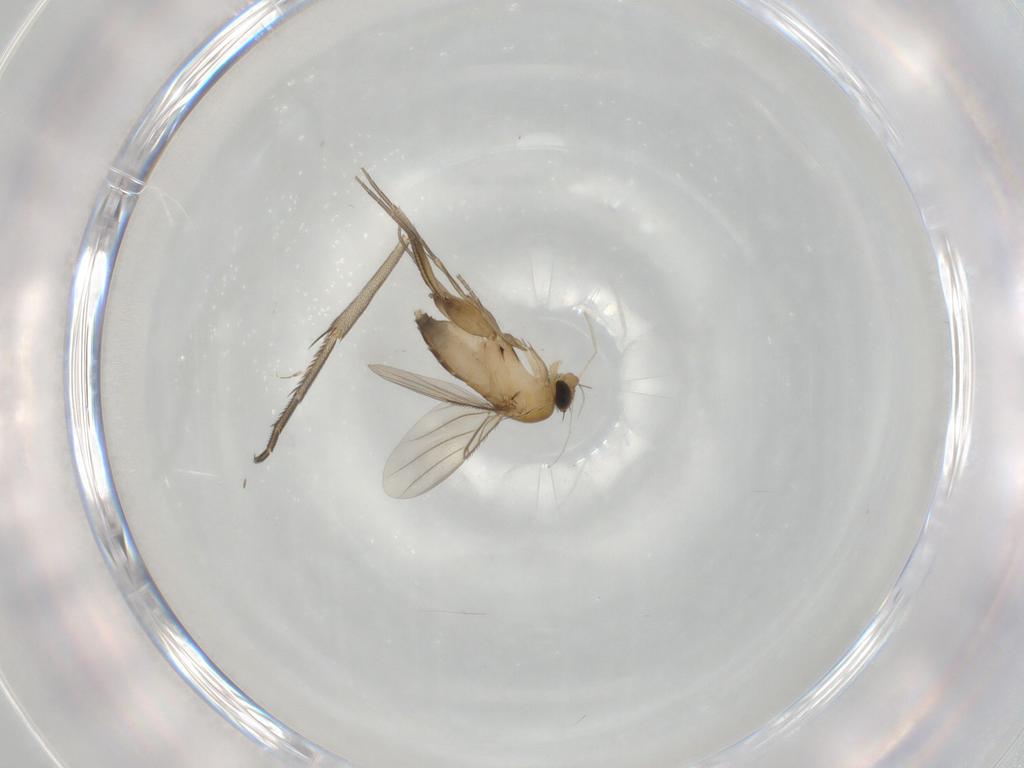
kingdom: Animalia
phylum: Arthropoda
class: Insecta
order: Diptera
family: Phoridae
